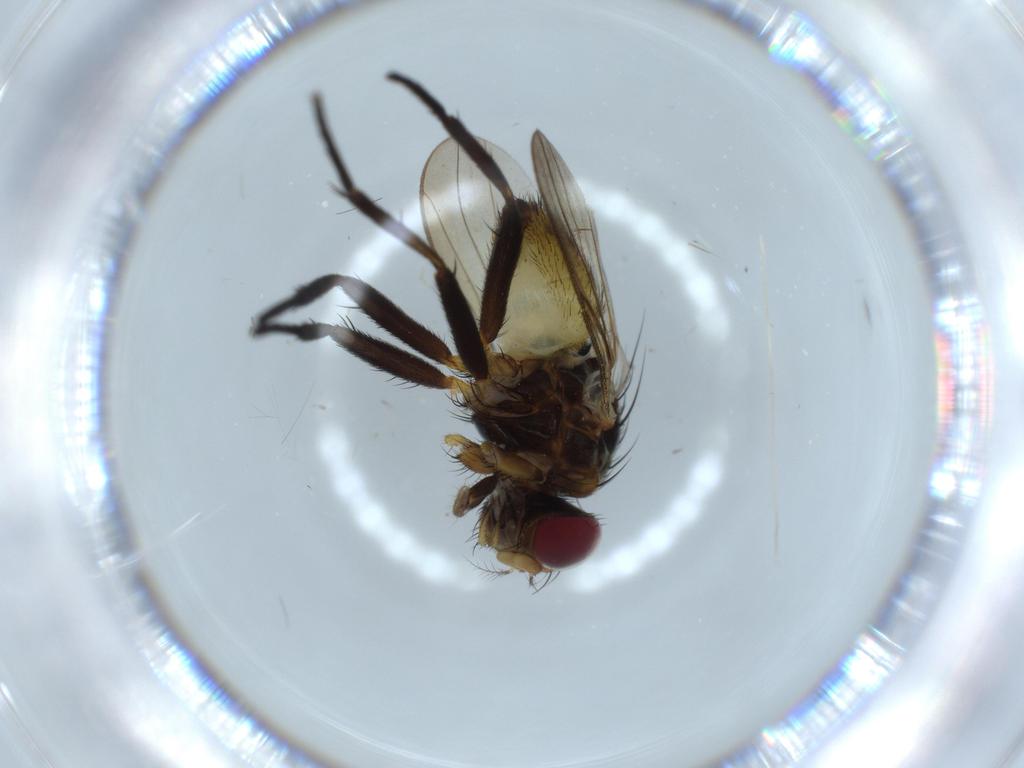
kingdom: Animalia
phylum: Arthropoda
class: Insecta
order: Diptera
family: Anthomyiidae
